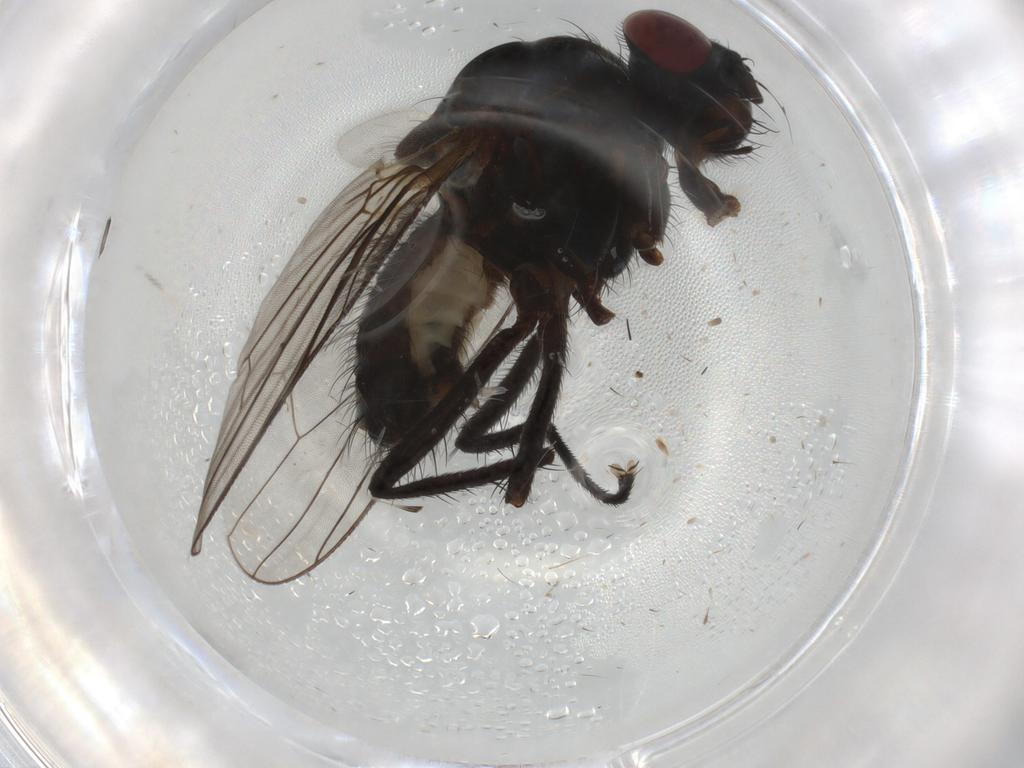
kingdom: Animalia
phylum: Arthropoda
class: Insecta
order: Diptera
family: Anthomyiidae
